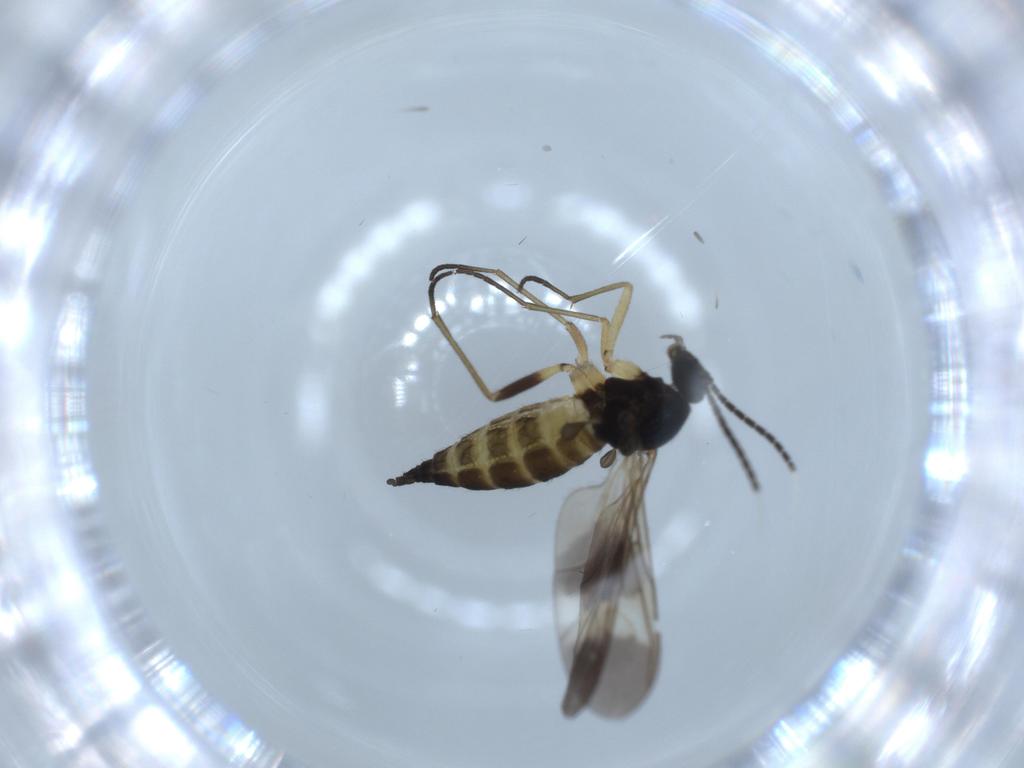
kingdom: Animalia
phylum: Arthropoda
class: Insecta
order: Diptera
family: Sciaridae
